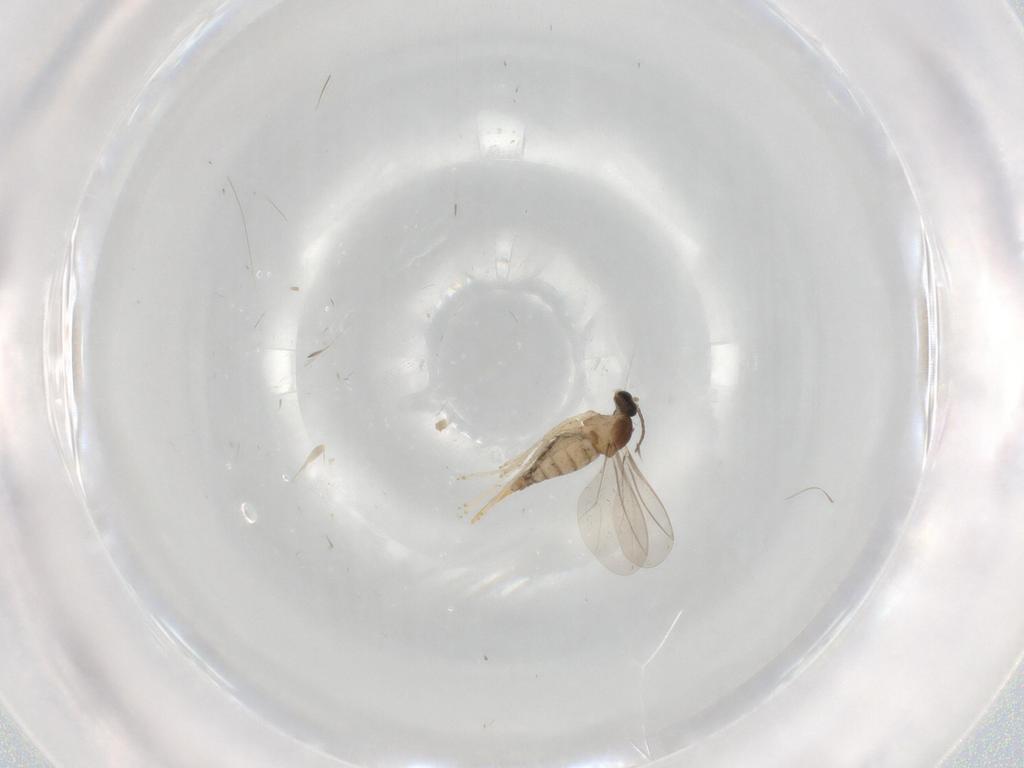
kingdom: Animalia
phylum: Arthropoda
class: Insecta
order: Diptera
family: Cecidomyiidae
